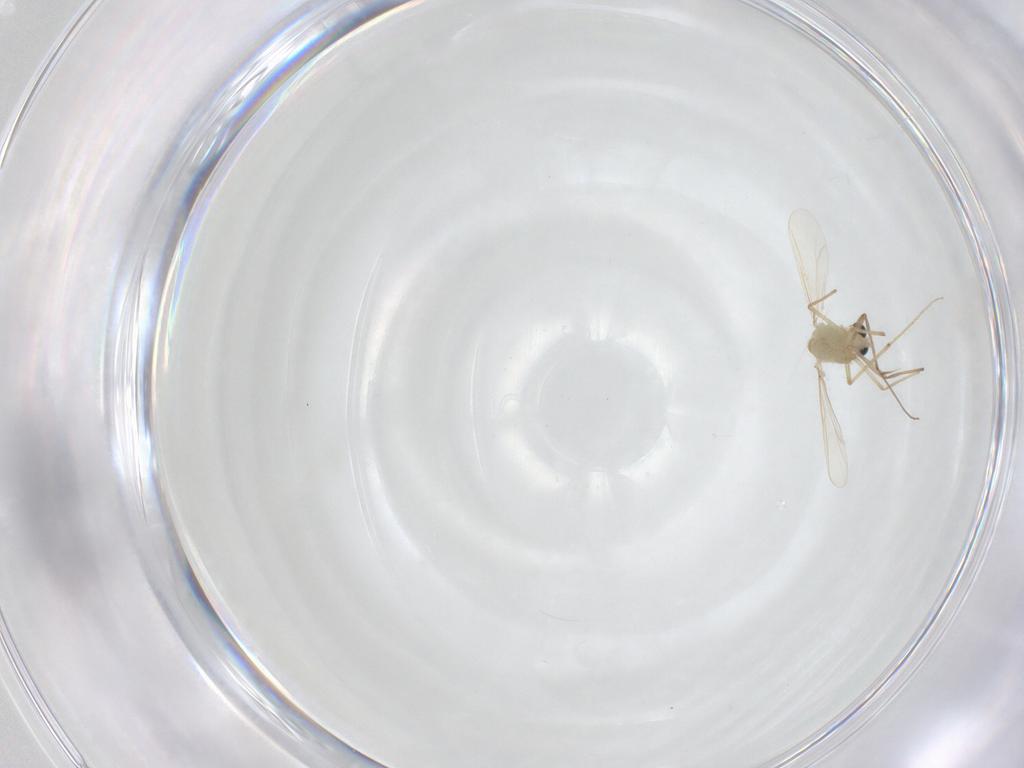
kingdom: Animalia
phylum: Arthropoda
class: Insecta
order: Diptera
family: Chironomidae
